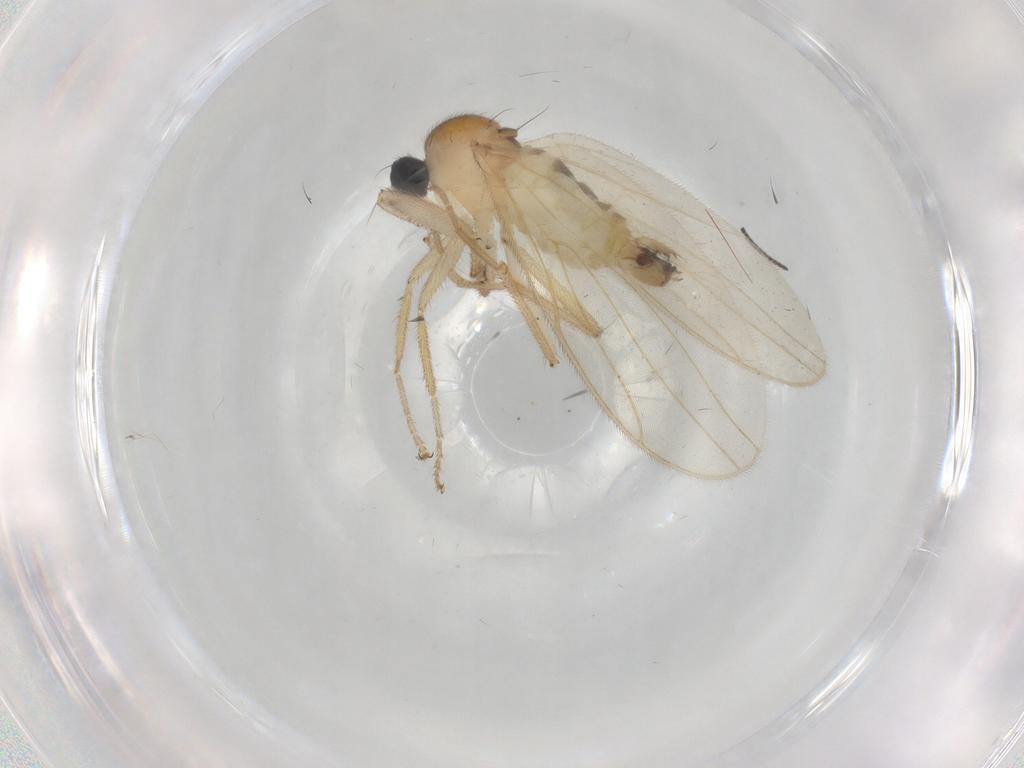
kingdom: Animalia
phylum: Arthropoda
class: Insecta
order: Diptera
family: Hybotidae
